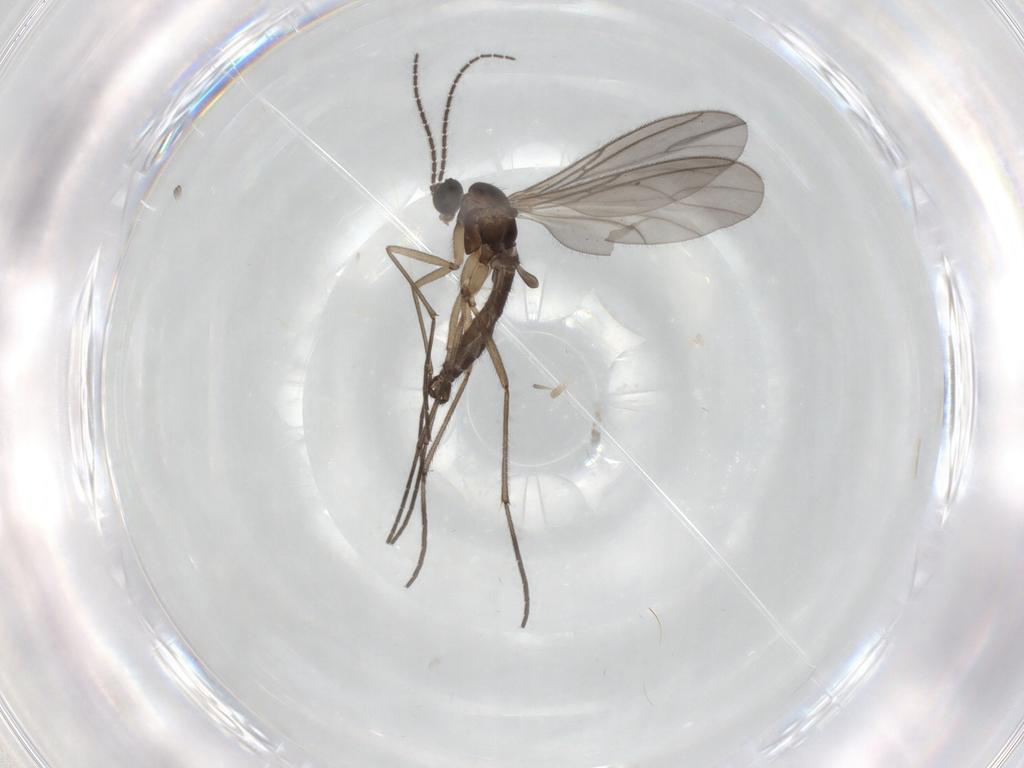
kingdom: Animalia
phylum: Arthropoda
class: Insecta
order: Diptera
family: Sciaridae
